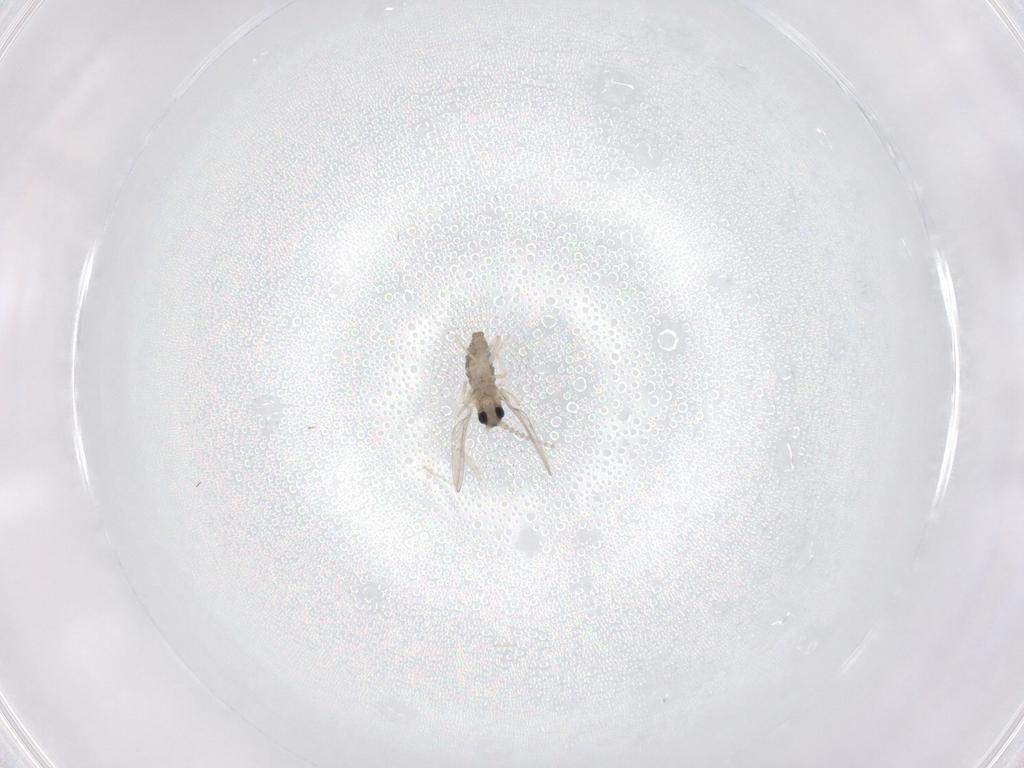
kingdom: Animalia
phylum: Arthropoda
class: Insecta
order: Diptera
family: Cecidomyiidae
